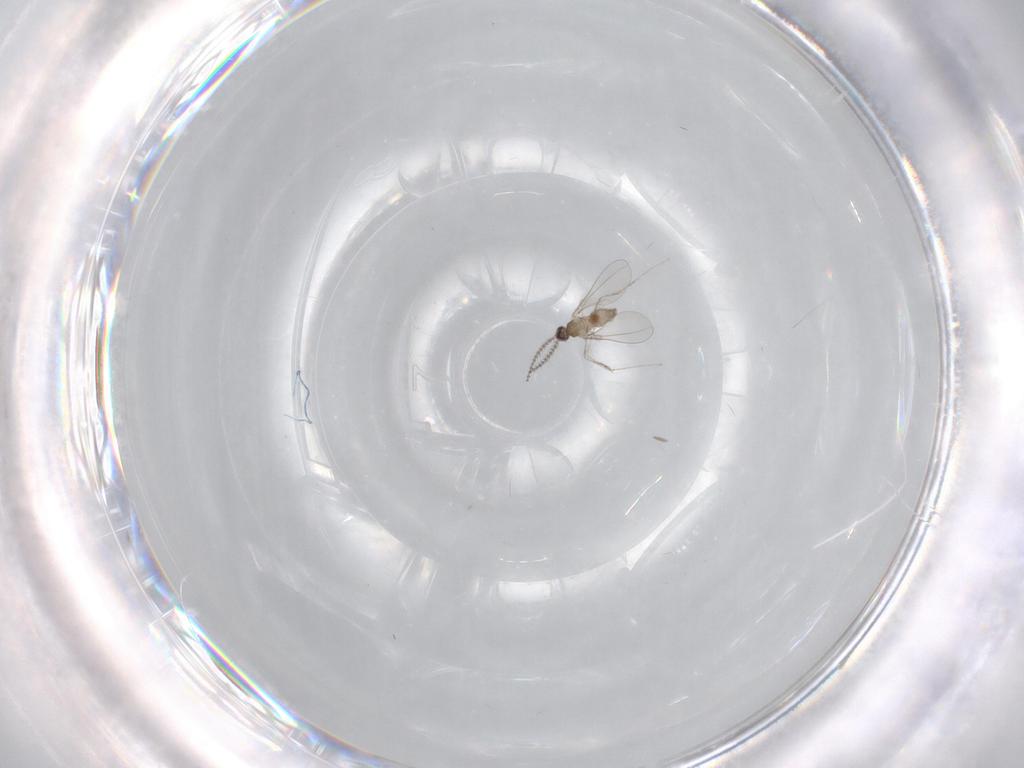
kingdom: Animalia
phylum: Arthropoda
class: Insecta
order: Diptera
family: Cecidomyiidae
